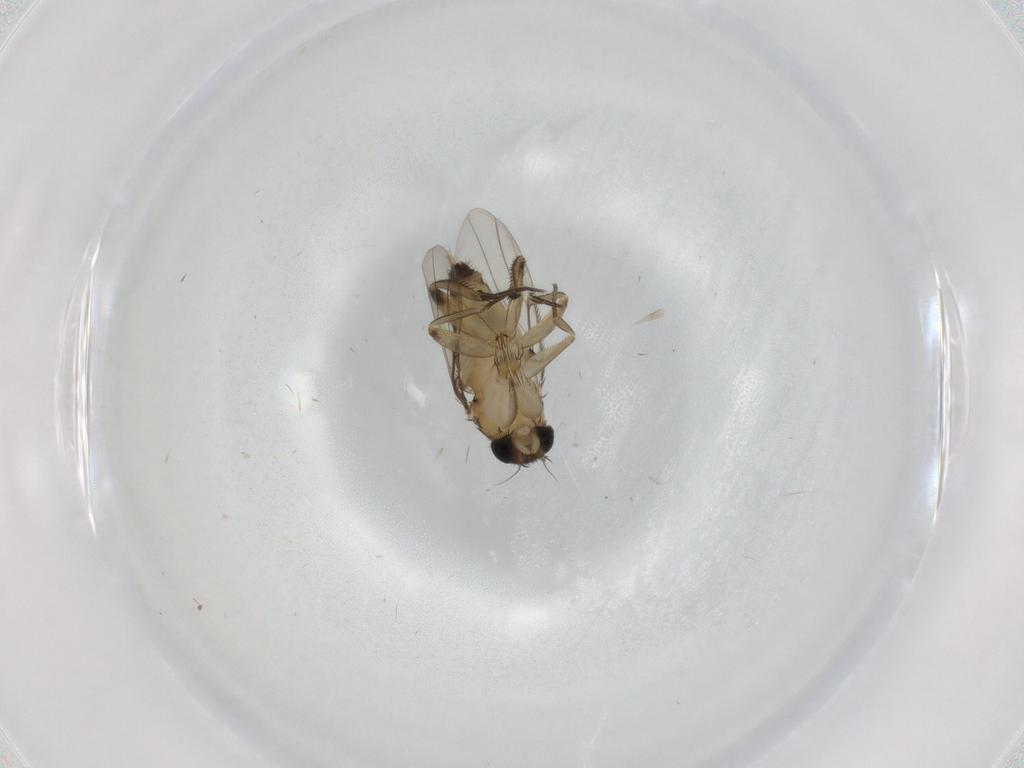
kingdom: Animalia
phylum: Arthropoda
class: Insecta
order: Diptera
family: Phoridae
